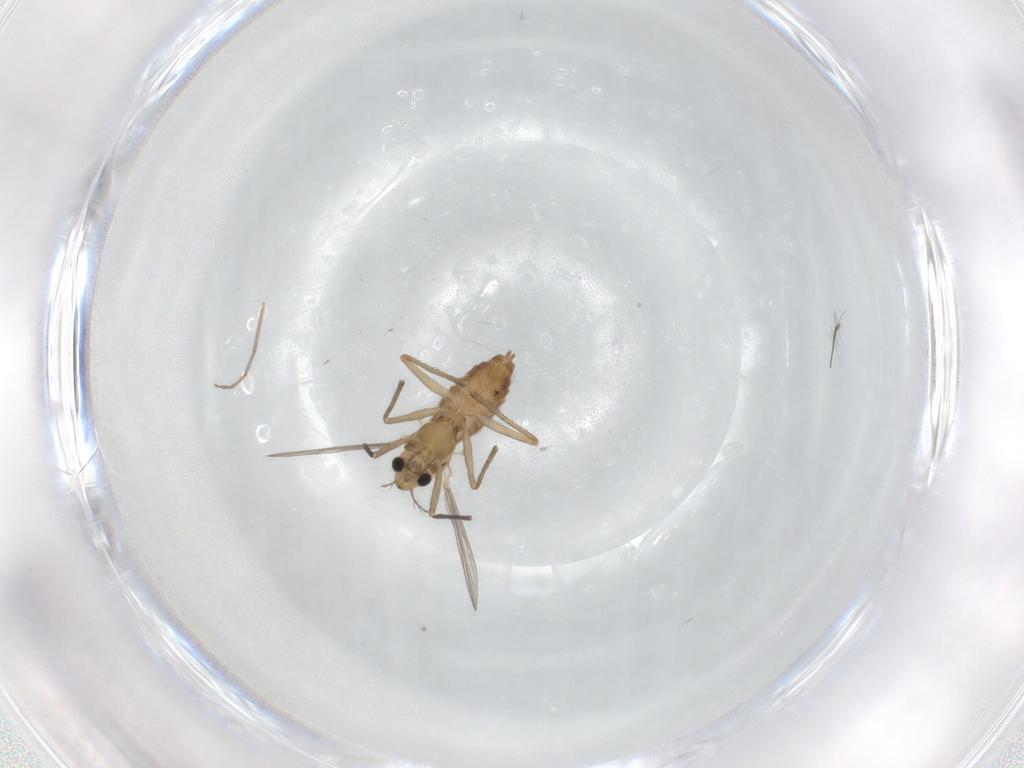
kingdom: Animalia
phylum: Arthropoda
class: Insecta
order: Diptera
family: Chironomidae
